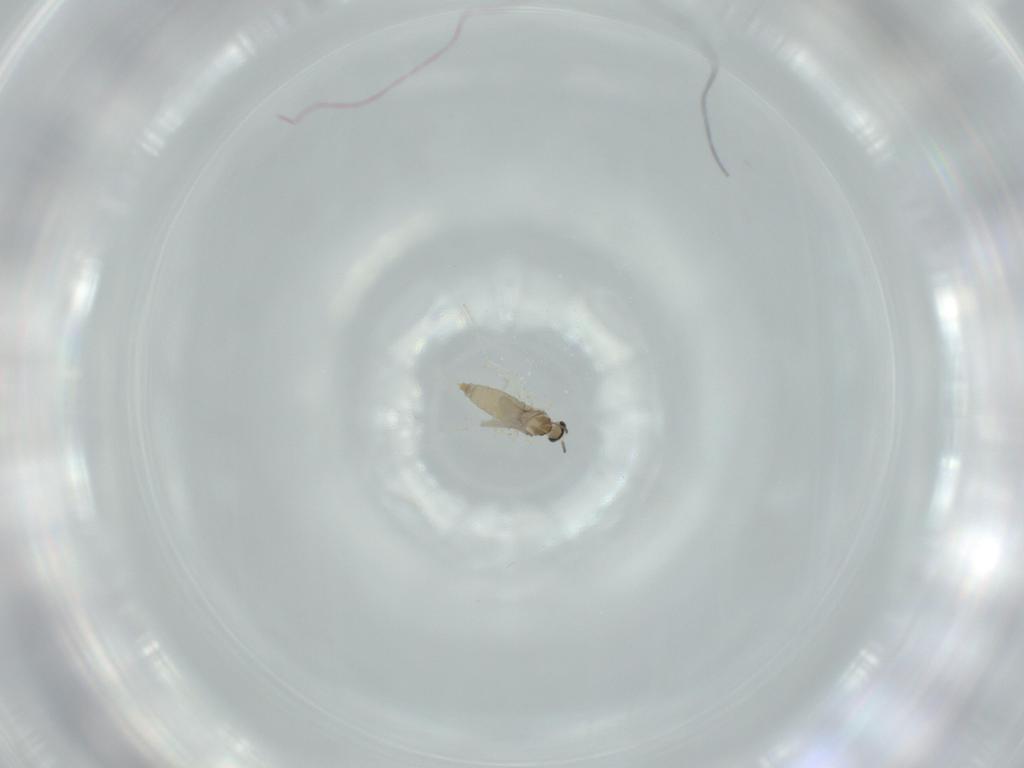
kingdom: Animalia
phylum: Arthropoda
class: Insecta
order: Diptera
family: Phoridae
